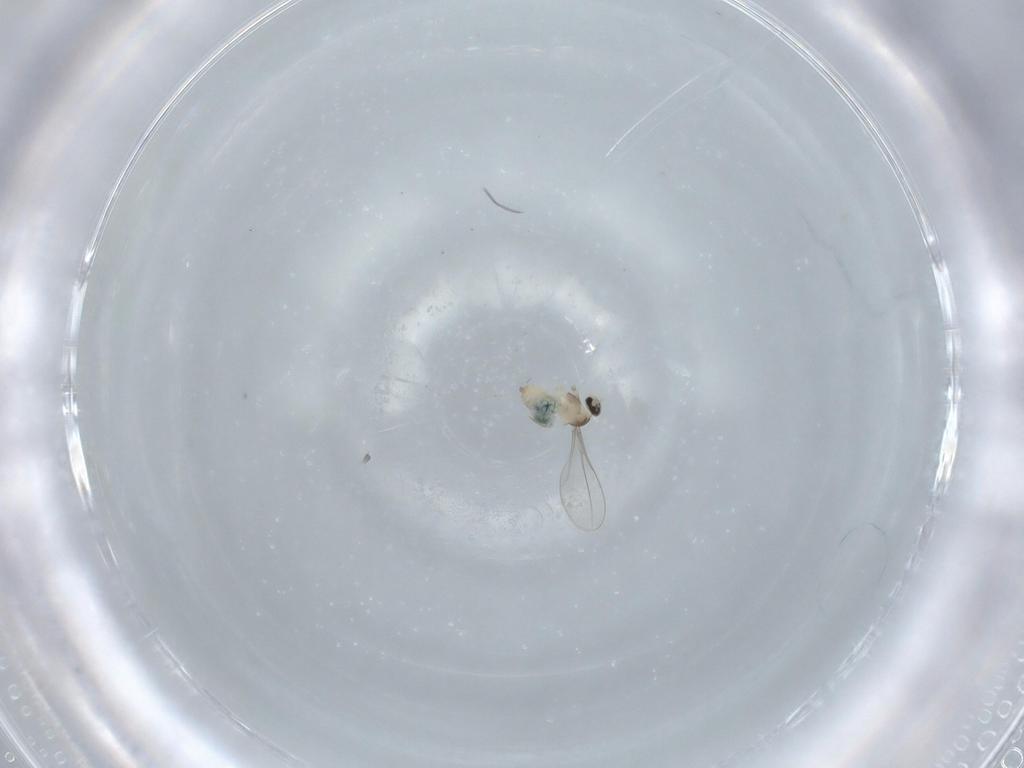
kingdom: Animalia
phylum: Arthropoda
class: Insecta
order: Diptera
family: Cecidomyiidae
